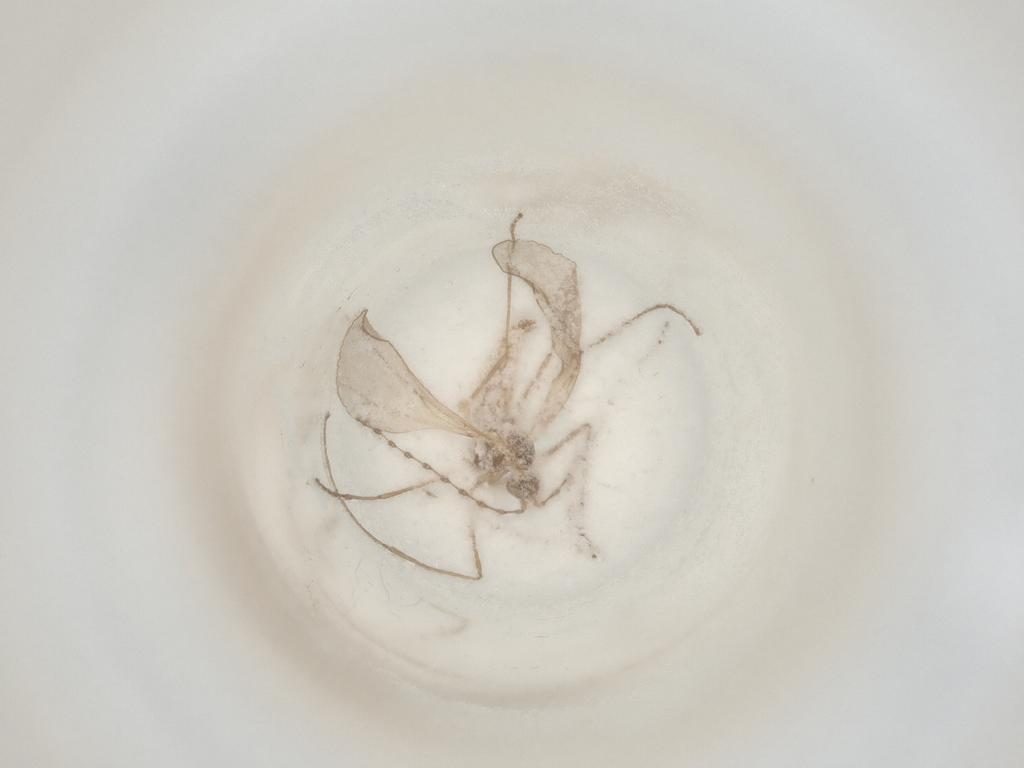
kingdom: Animalia
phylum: Arthropoda
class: Insecta
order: Diptera
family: Cecidomyiidae
